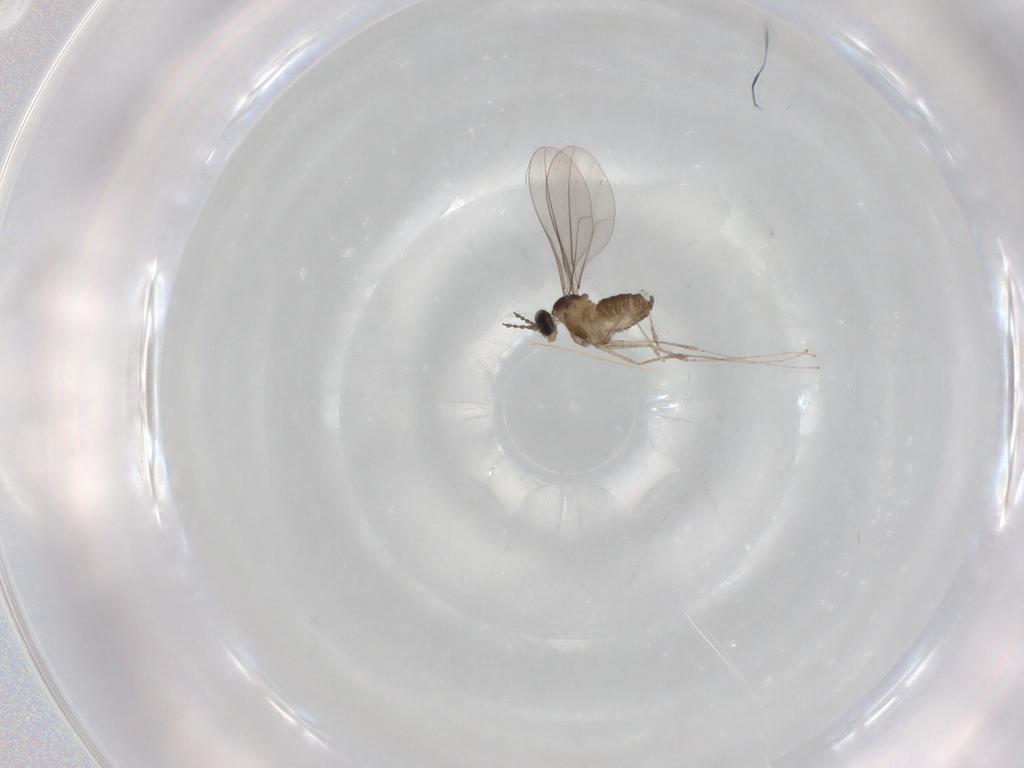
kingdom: Animalia
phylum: Arthropoda
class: Insecta
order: Diptera
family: Cecidomyiidae
